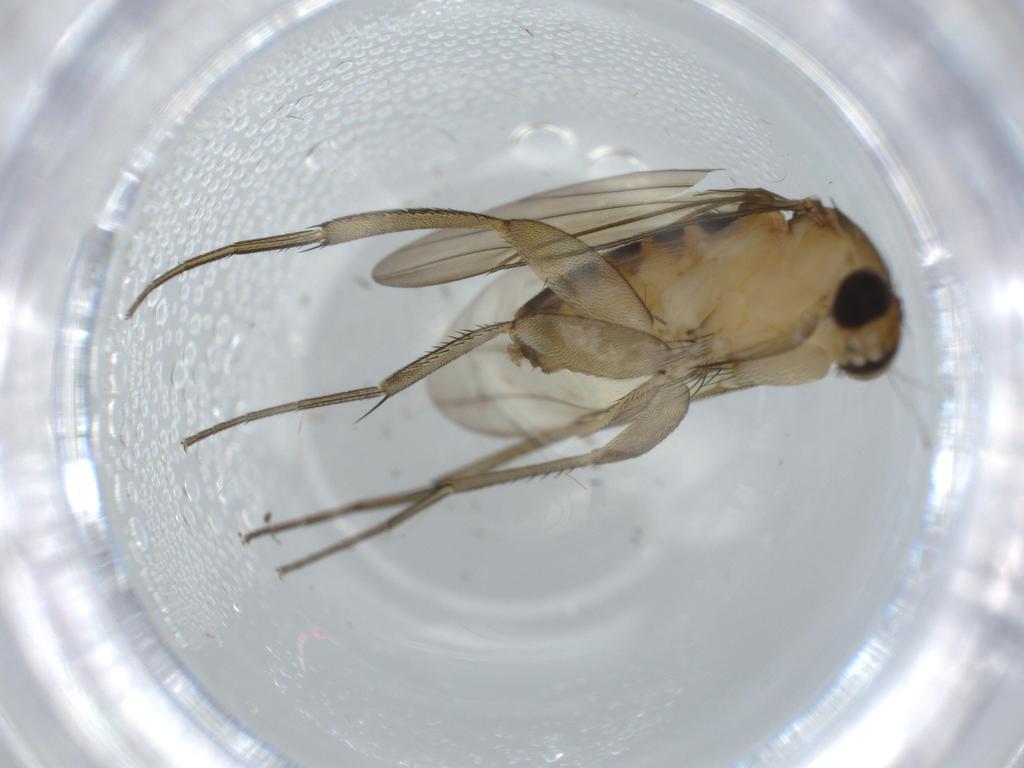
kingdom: Animalia
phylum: Arthropoda
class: Insecta
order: Diptera
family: Phoridae
